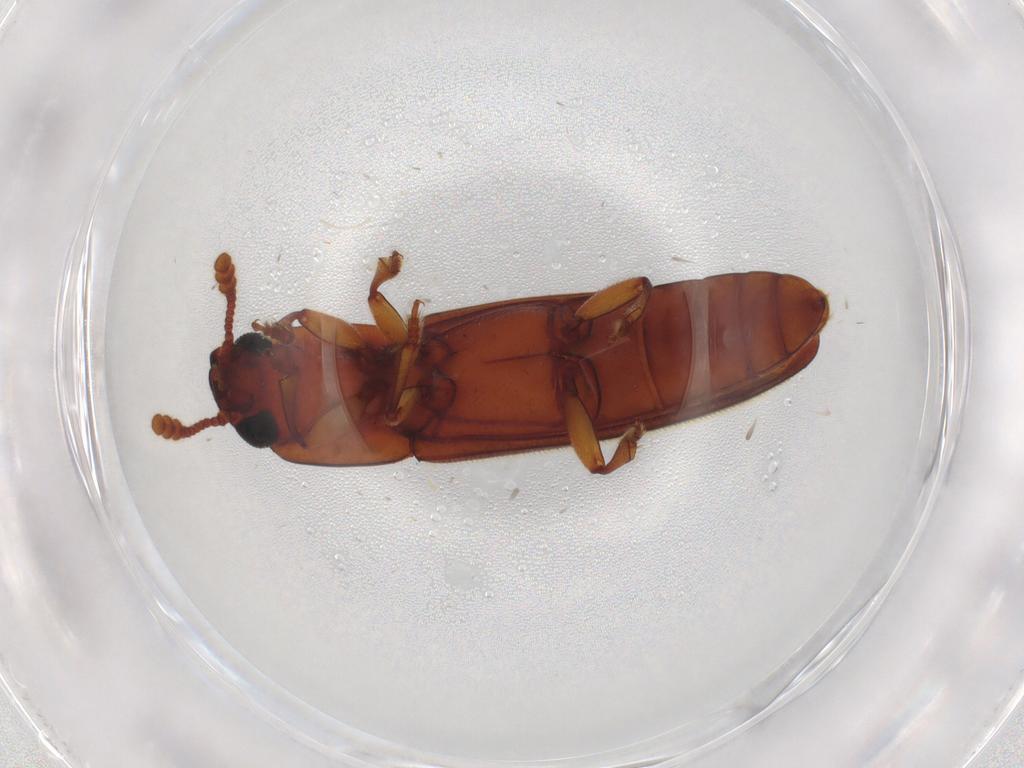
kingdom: Animalia
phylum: Arthropoda
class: Insecta
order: Coleoptera
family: Erotylidae
